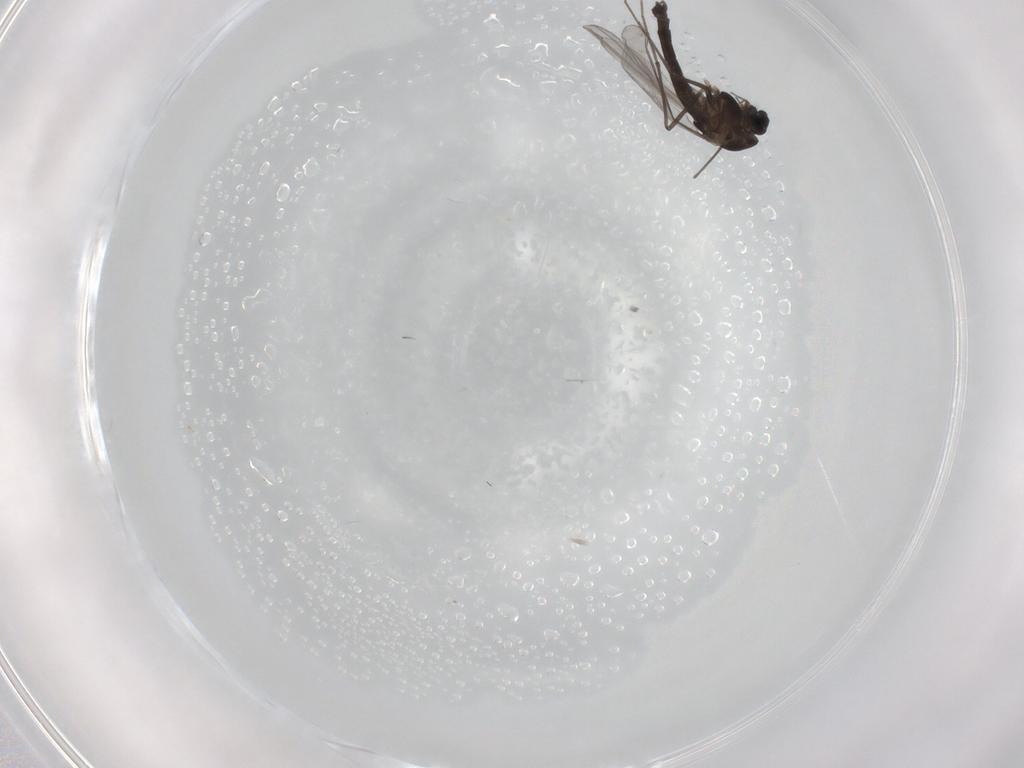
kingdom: Animalia
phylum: Arthropoda
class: Insecta
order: Diptera
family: Chironomidae
